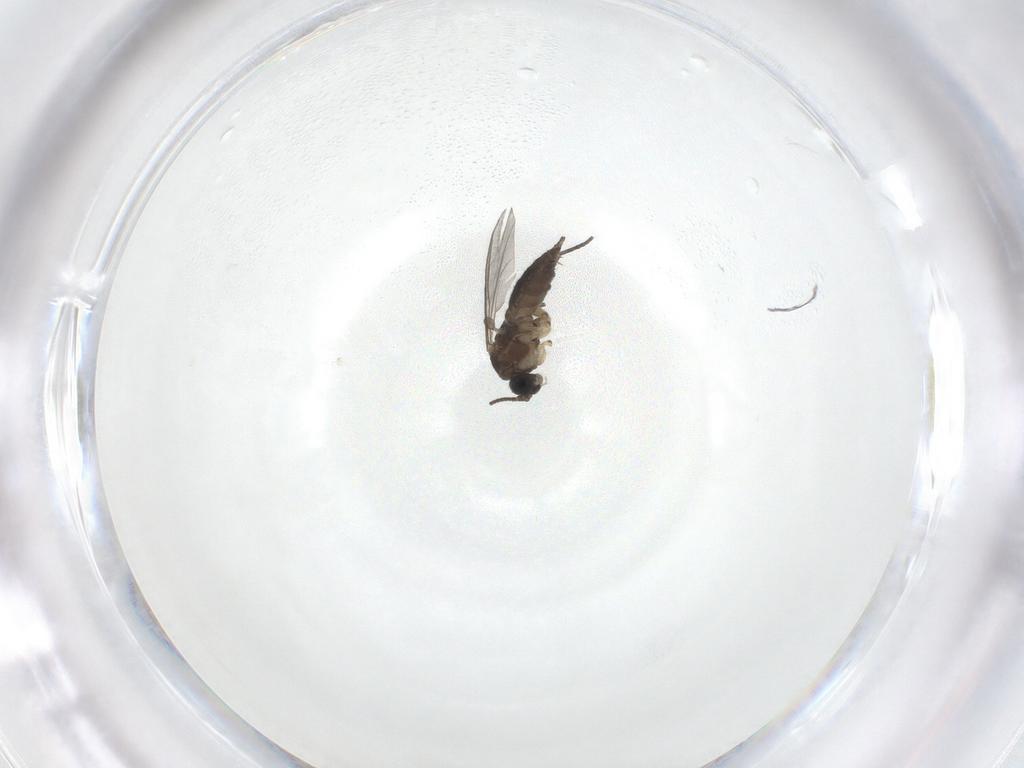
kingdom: Animalia
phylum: Arthropoda
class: Insecta
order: Diptera
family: Sciaridae
